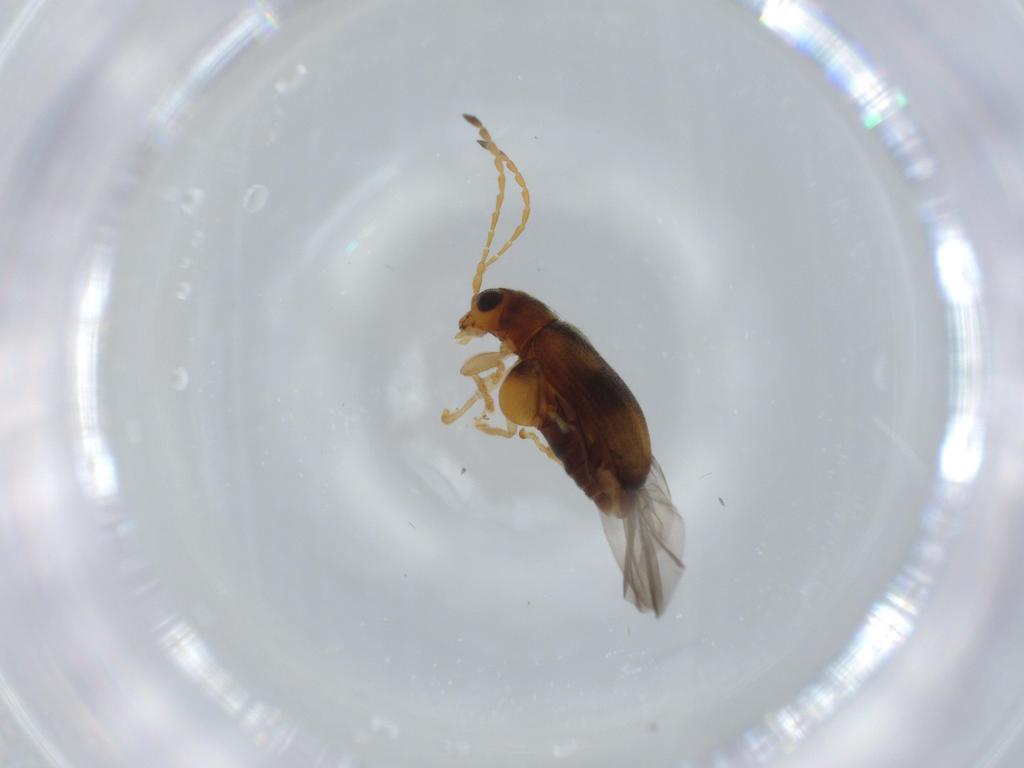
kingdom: Animalia
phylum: Arthropoda
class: Insecta
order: Coleoptera
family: Chrysomelidae
